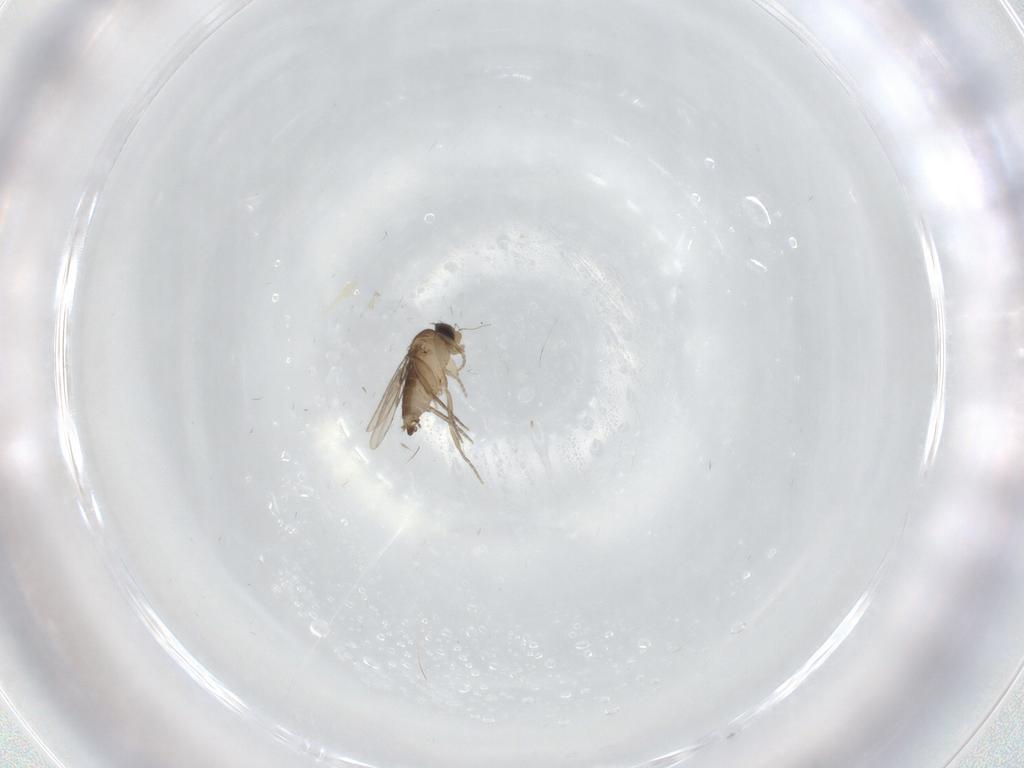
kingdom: Animalia
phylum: Arthropoda
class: Insecta
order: Diptera
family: Phoridae
